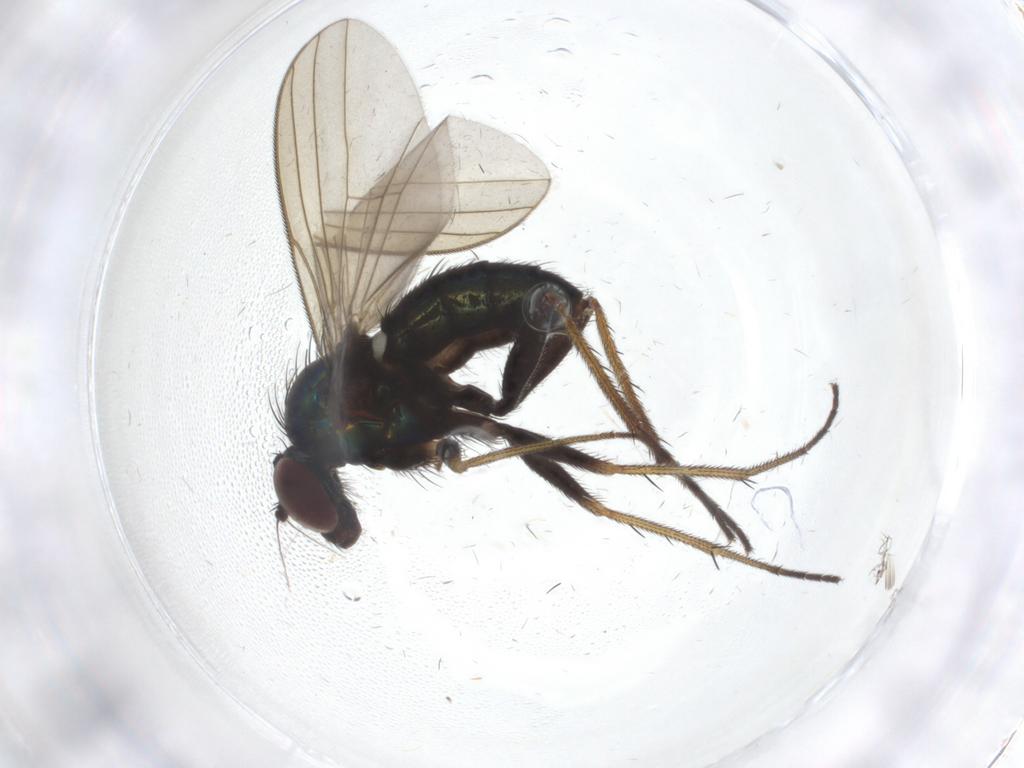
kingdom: Animalia
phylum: Arthropoda
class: Insecta
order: Diptera
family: Dolichopodidae
